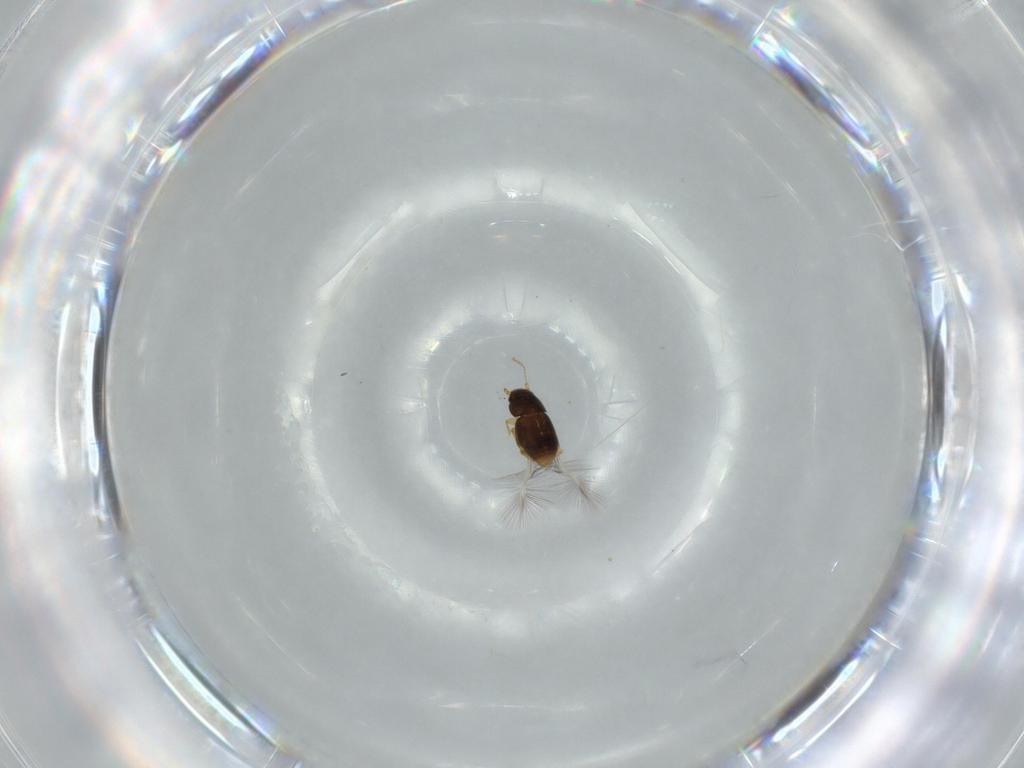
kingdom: Animalia
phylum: Arthropoda
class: Insecta
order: Coleoptera
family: Ptiliidae
